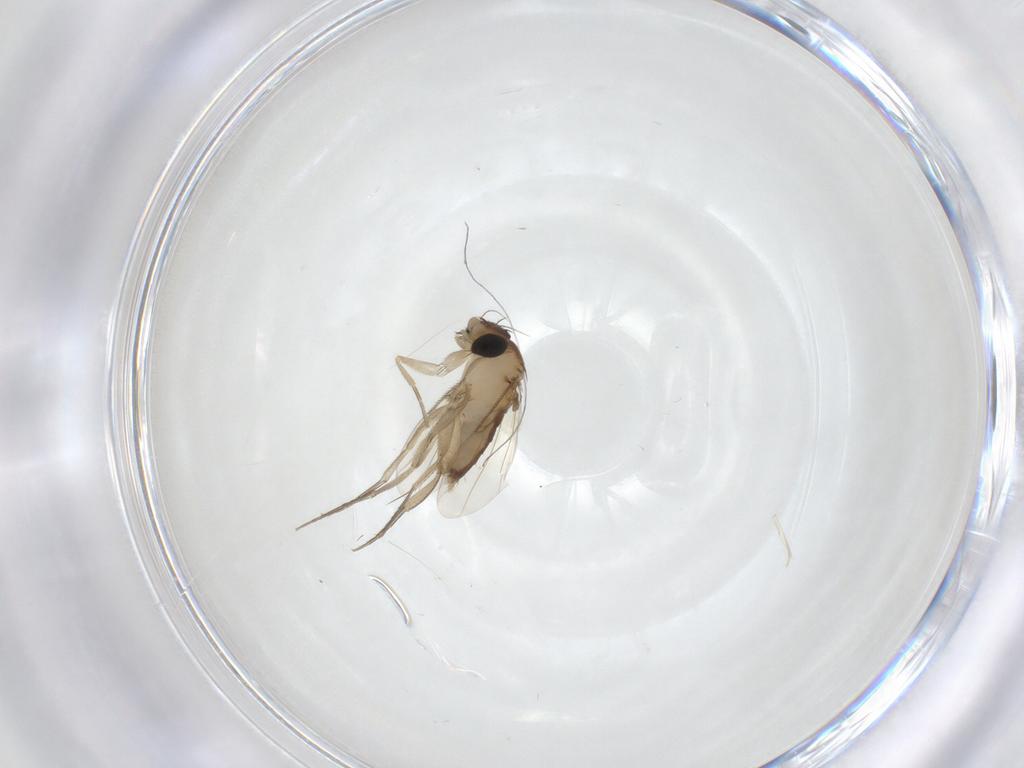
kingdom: Animalia
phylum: Arthropoda
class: Insecta
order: Diptera
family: Phoridae
